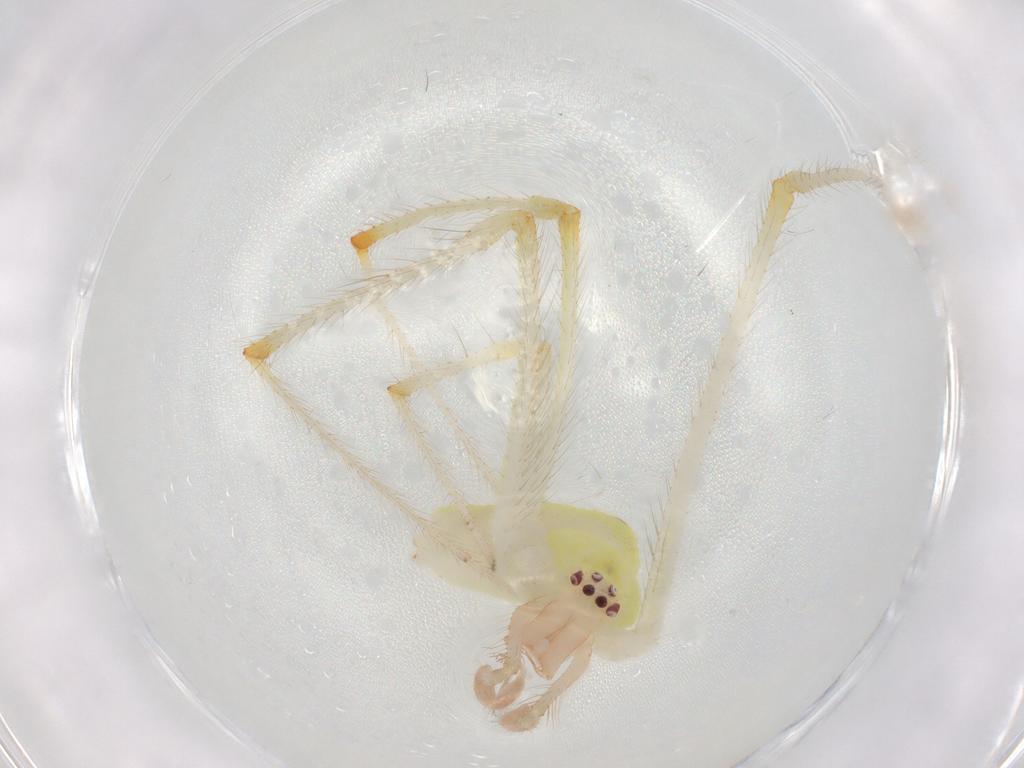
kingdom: Animalia
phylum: Arthropoda
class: Arachnida
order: Araneae
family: Theridiidae
